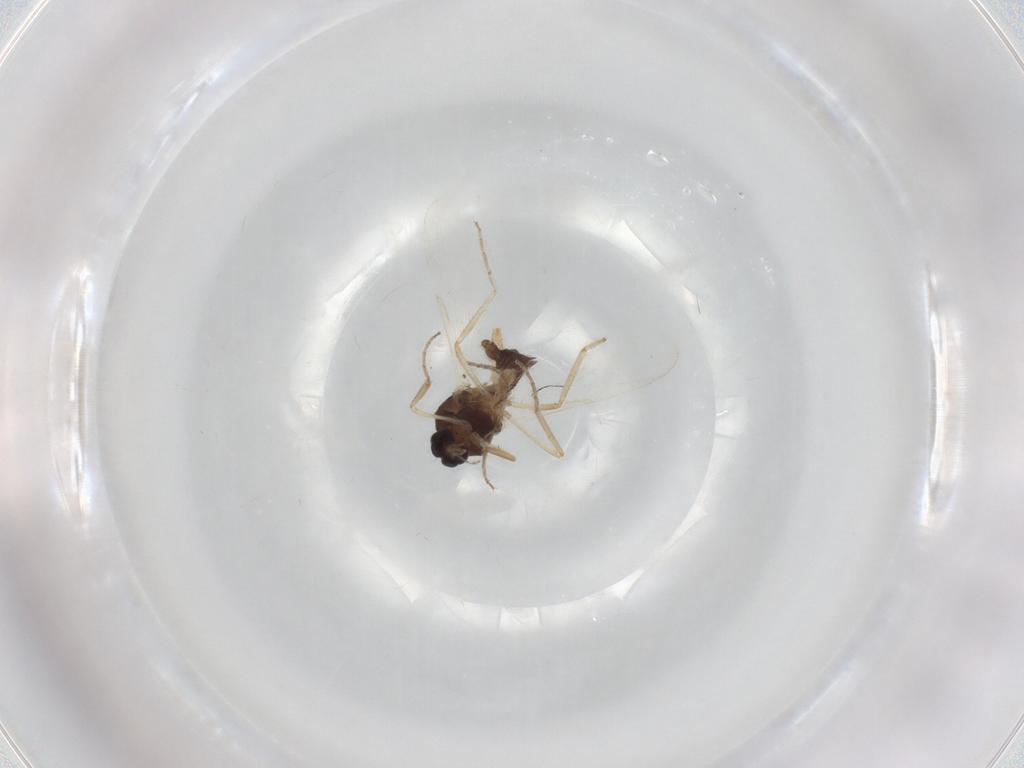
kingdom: Animalia
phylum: Arthropoda
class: Insecta
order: Diptera
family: Ceratopogonidae
